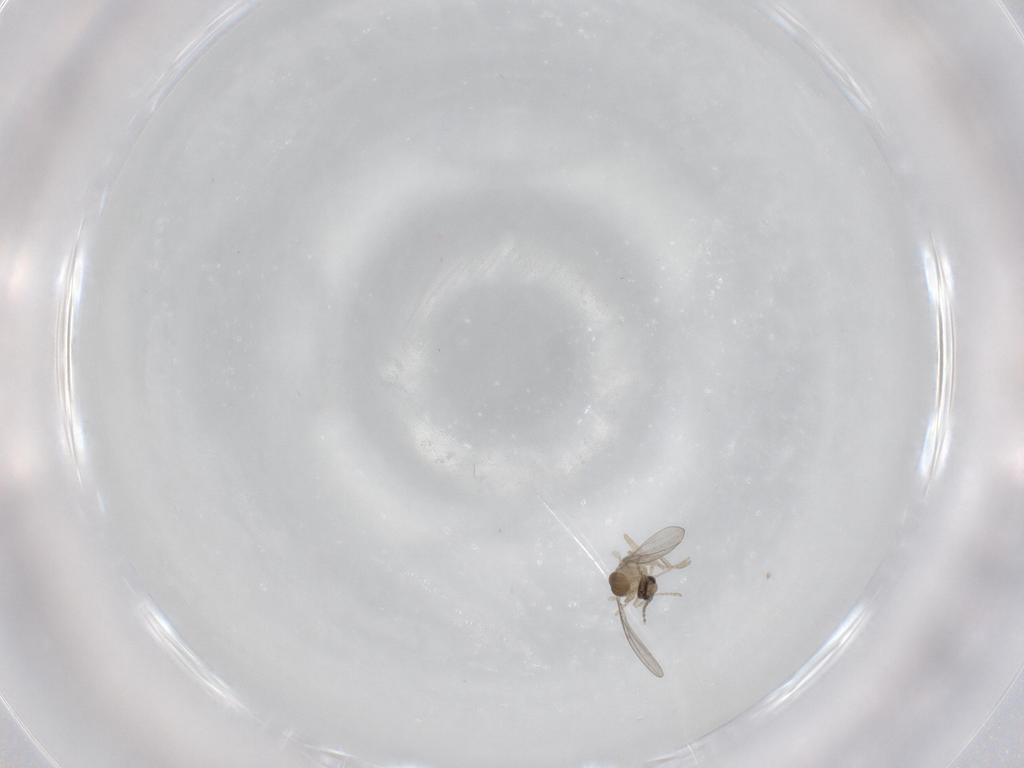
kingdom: Animalia
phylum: Arthropoda
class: Insecta
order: Diptera
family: Cecidomyiidae
